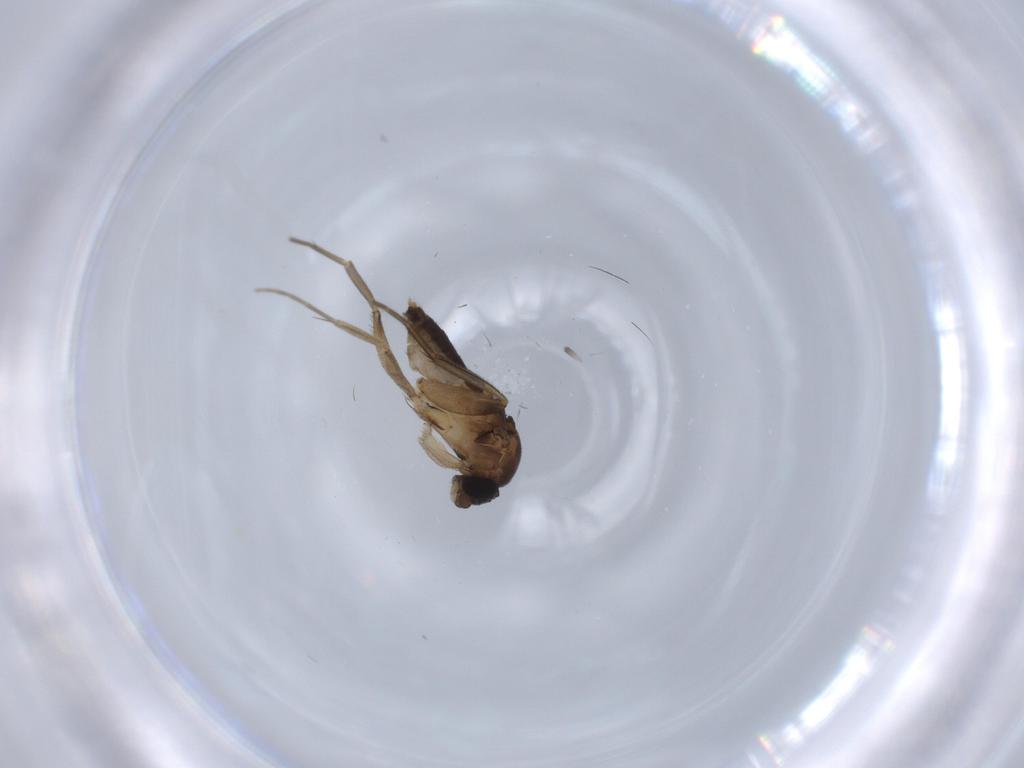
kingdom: Animalia
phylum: Arthropoda
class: Insecta
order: Diptera
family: Phoridae
